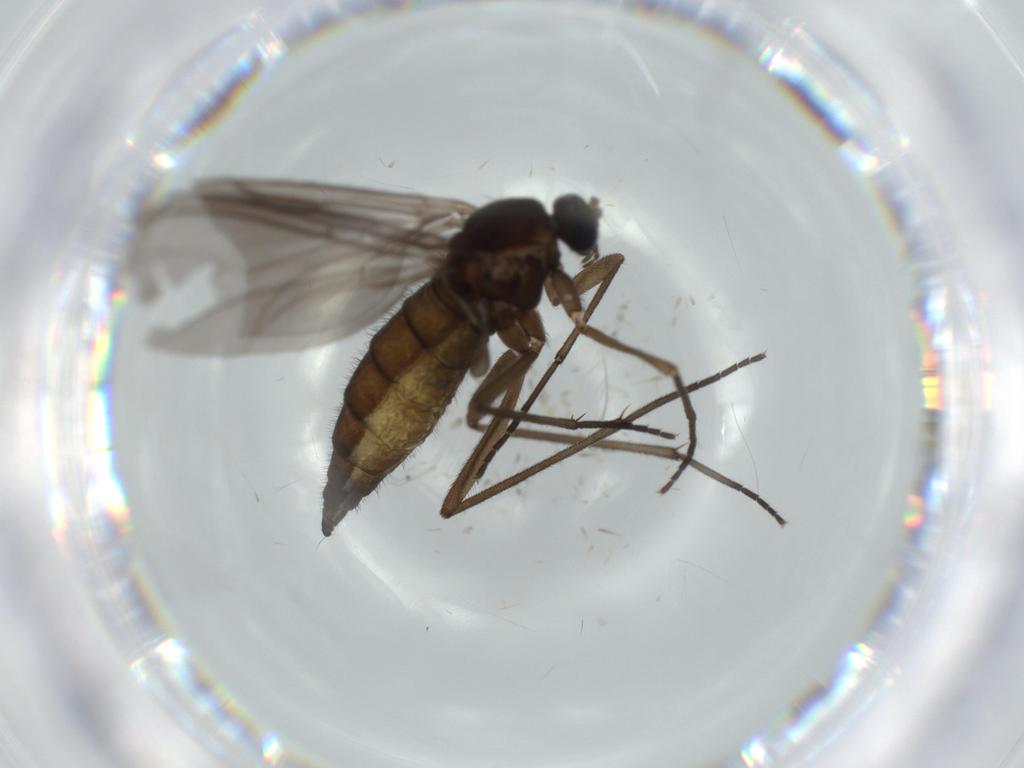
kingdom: Animalia
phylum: Arthropoda
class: Insecta
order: Diptera
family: Sciaridae
